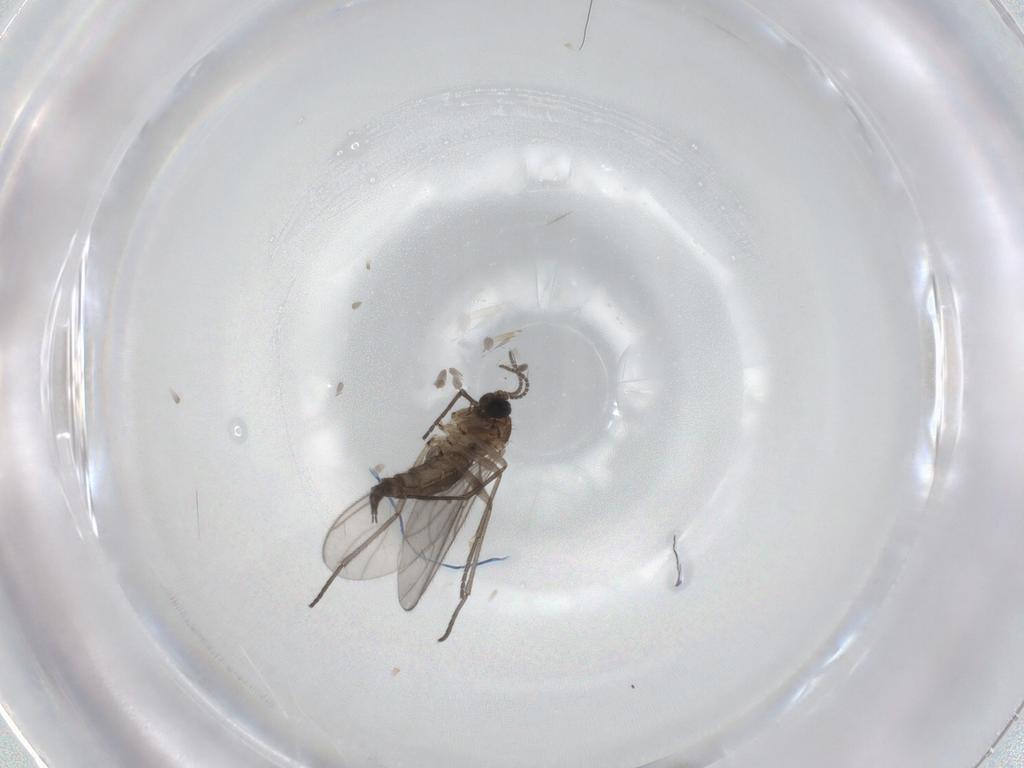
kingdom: Animalia
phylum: Arthropoda
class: Insecta
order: Diptera
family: Sciaridae
